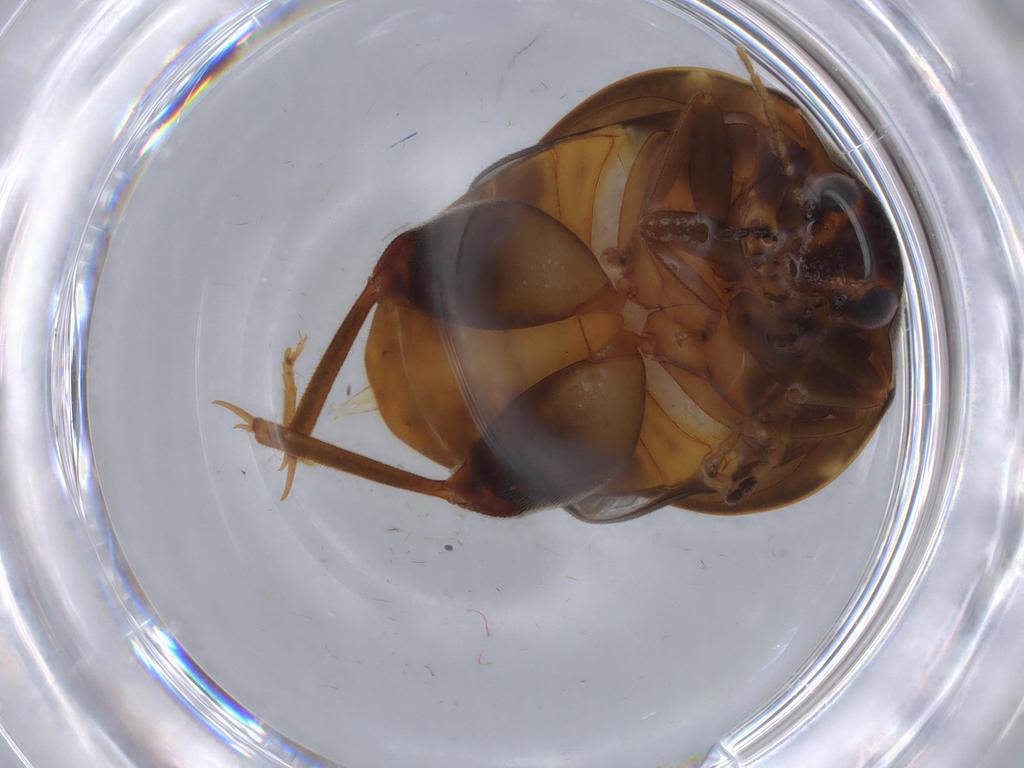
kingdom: Animalia
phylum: Arthropoda
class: Insecta
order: Coleoptera
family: Scirtidae
